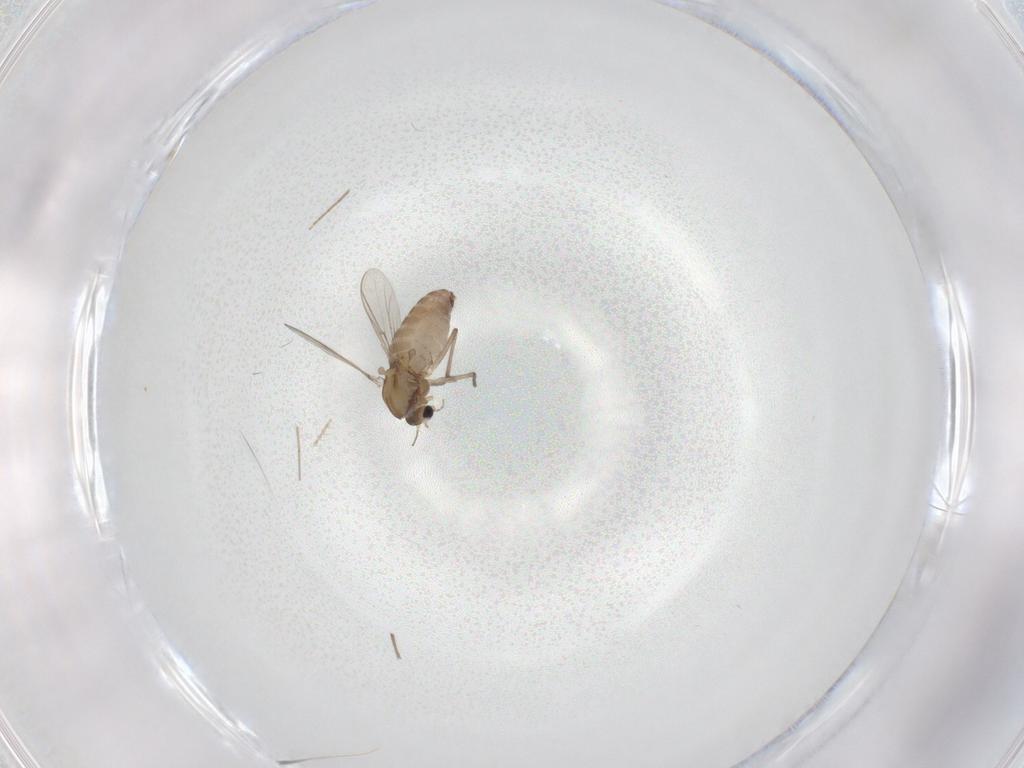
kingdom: Animalia
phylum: Arthropoda
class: Insecta
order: Diptera
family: Chironomidae
